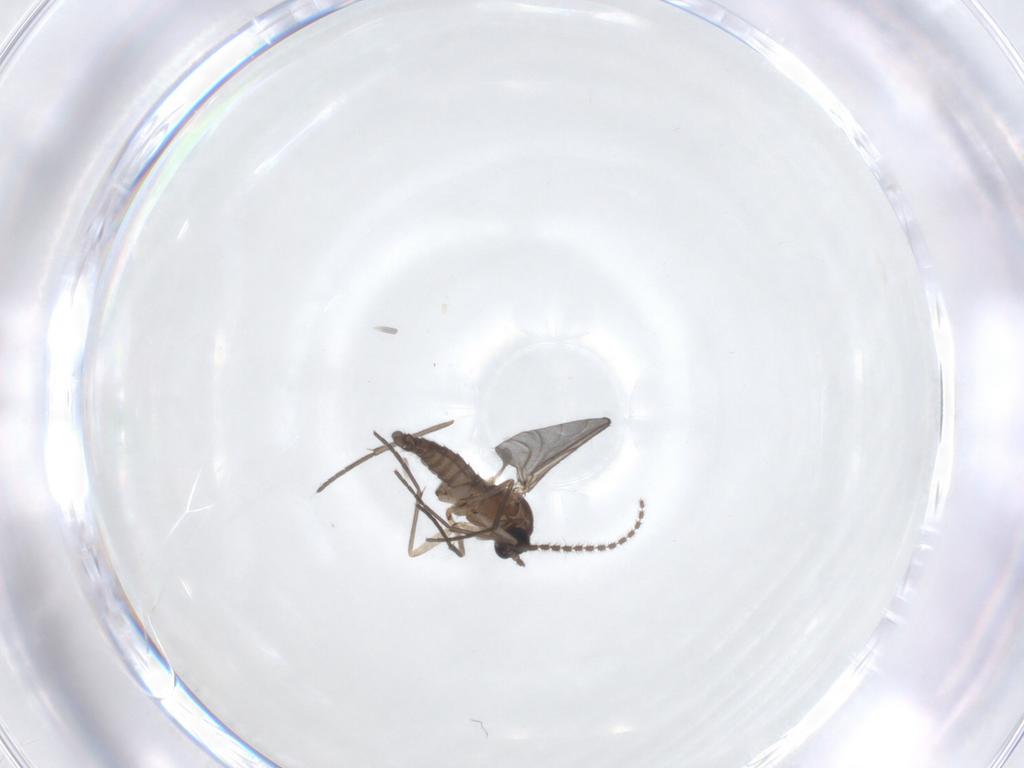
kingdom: Animalia
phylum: Arthropoda
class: Insecta
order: Diptera
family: Sciaridae
